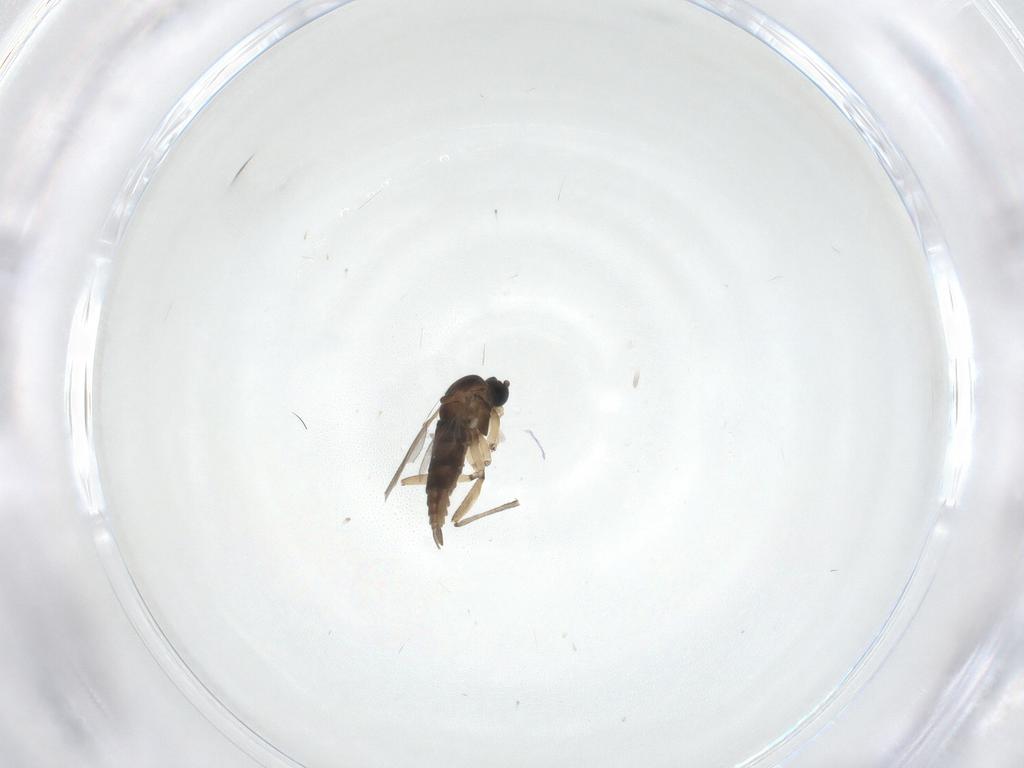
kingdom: Animalia
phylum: Arthropoda
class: Insecta
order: Diptera
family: Sciaridae
